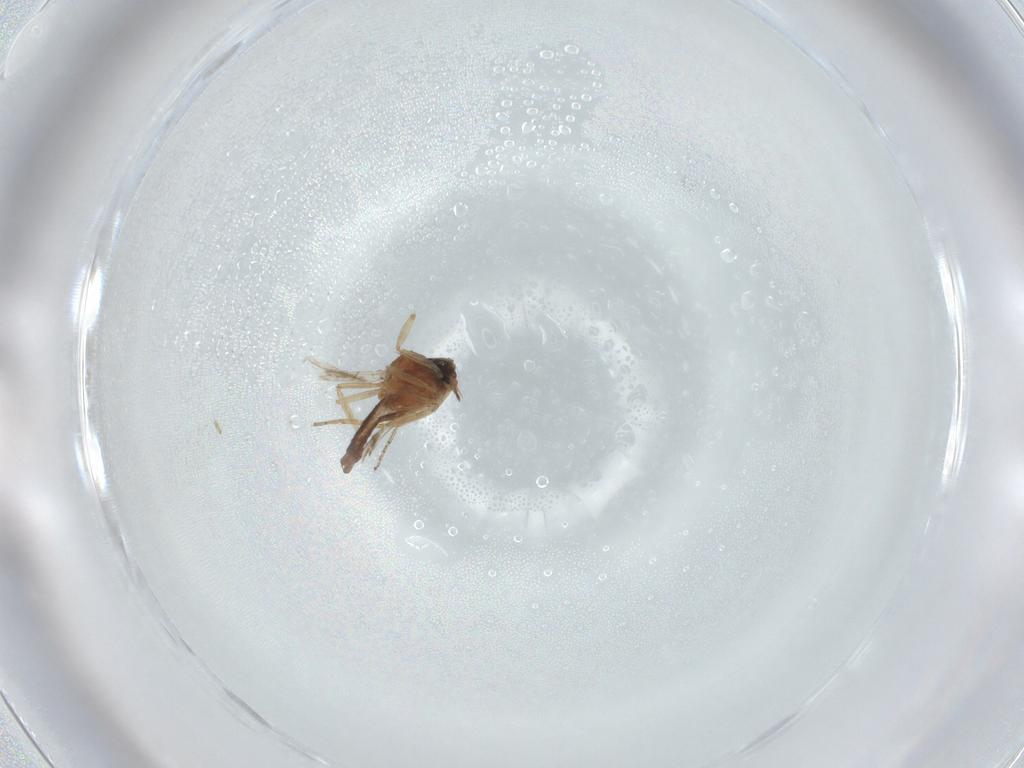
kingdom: Animalia
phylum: Arthropoda
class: Insecta
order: Diptera
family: Ceratopogonidae
